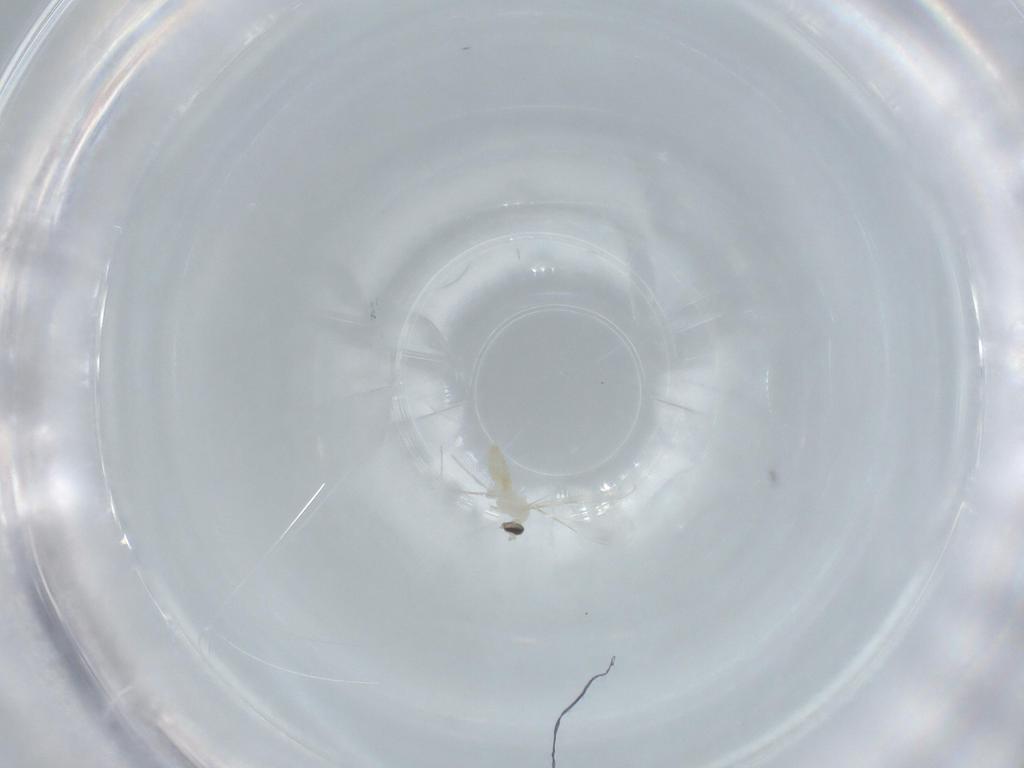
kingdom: Animalia
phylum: Arthropoda
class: Insecta
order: Diptera
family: Cecidomyiidae
